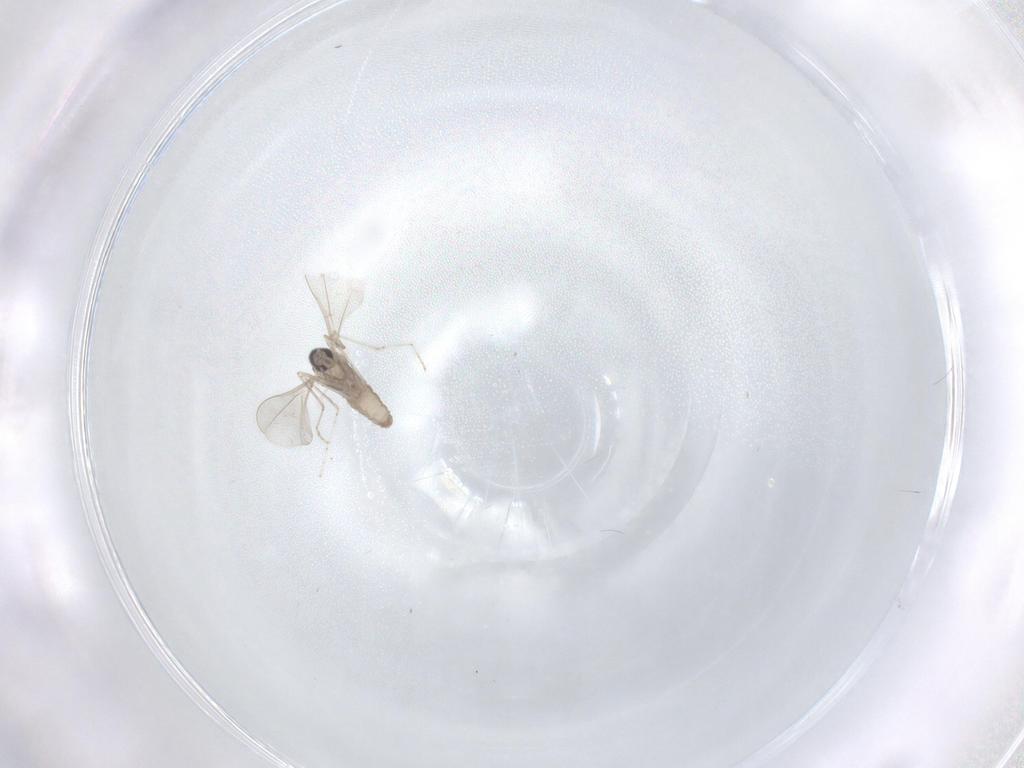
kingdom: Animalia
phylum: Arthropoda
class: Insecta
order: Diptera
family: Cecidomyiidae
